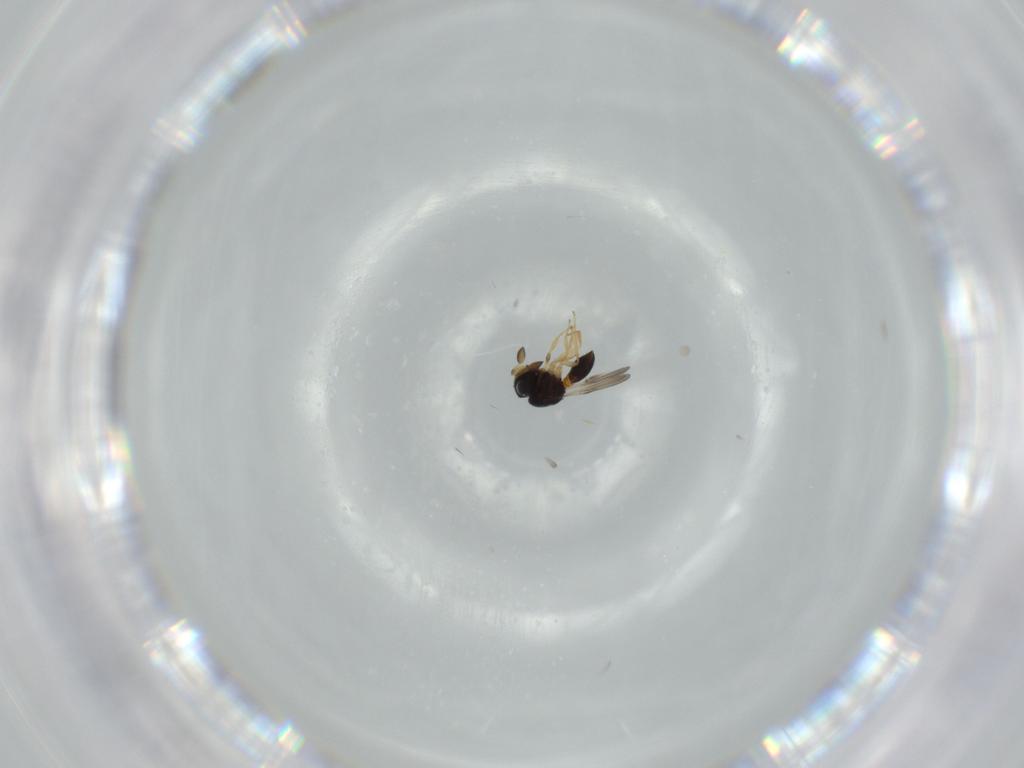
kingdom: Animalia
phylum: Arthropoda
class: Insecta
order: Hymenoptera
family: Scelionidae
